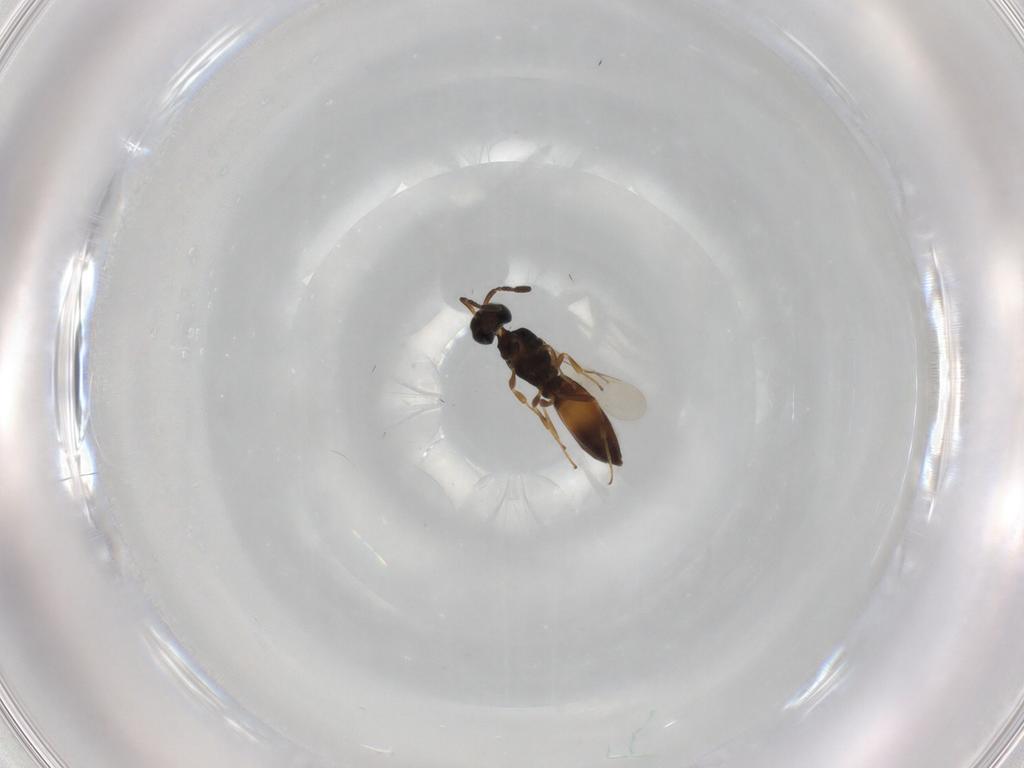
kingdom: Animalia
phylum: Arthropoda
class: Insecta
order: Hymenoptera
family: Scelionidae
